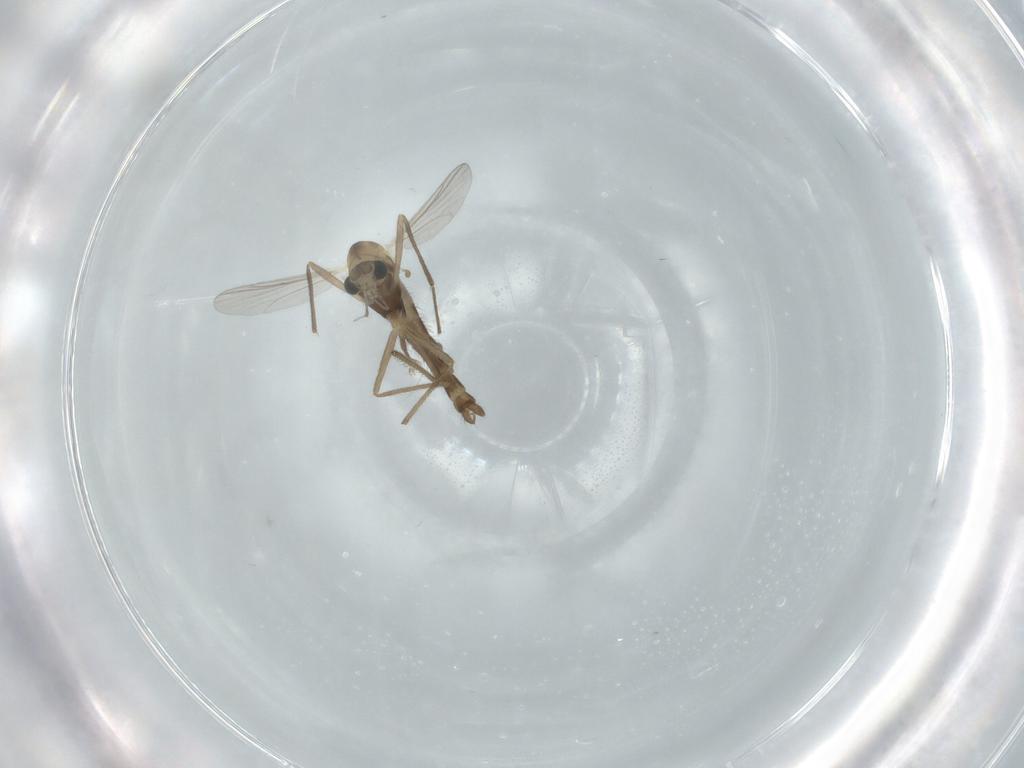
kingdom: Animalia
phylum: Arthropoda
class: Insecta
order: Diptera
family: Chironomidae
